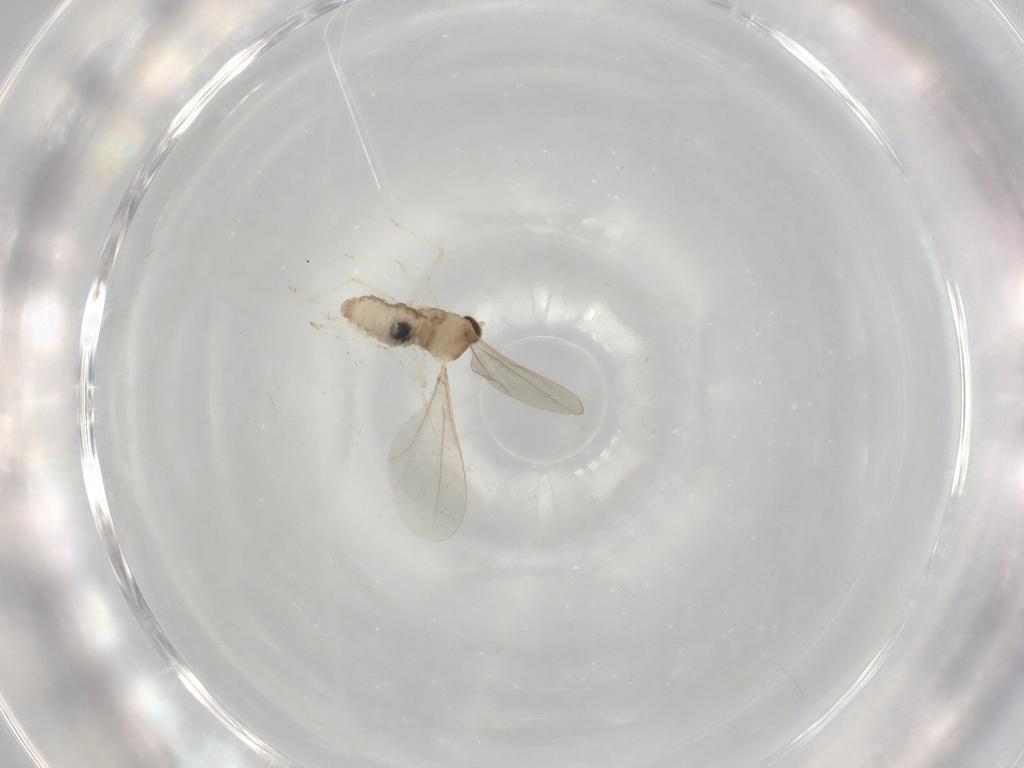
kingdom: Animalia
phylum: Arthropoda
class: Insecta
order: Diptera
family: Cecidomyiidae
